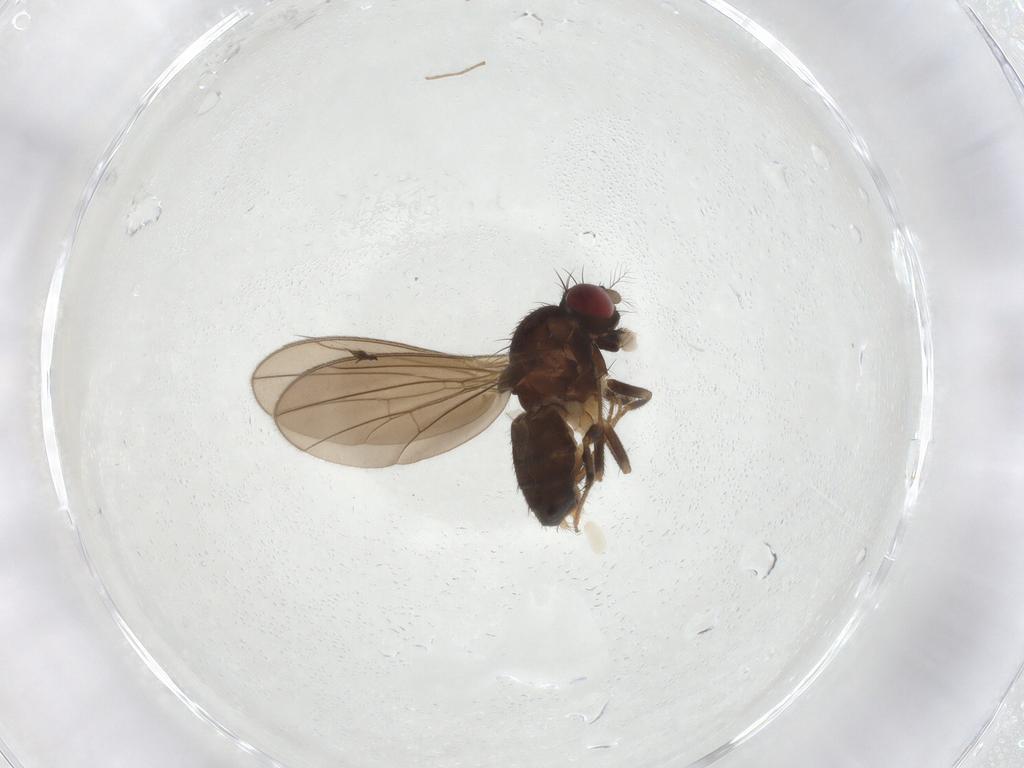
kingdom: Animalia
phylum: Arthropoda
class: Insecta
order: Diptera
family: Drosophilidae
